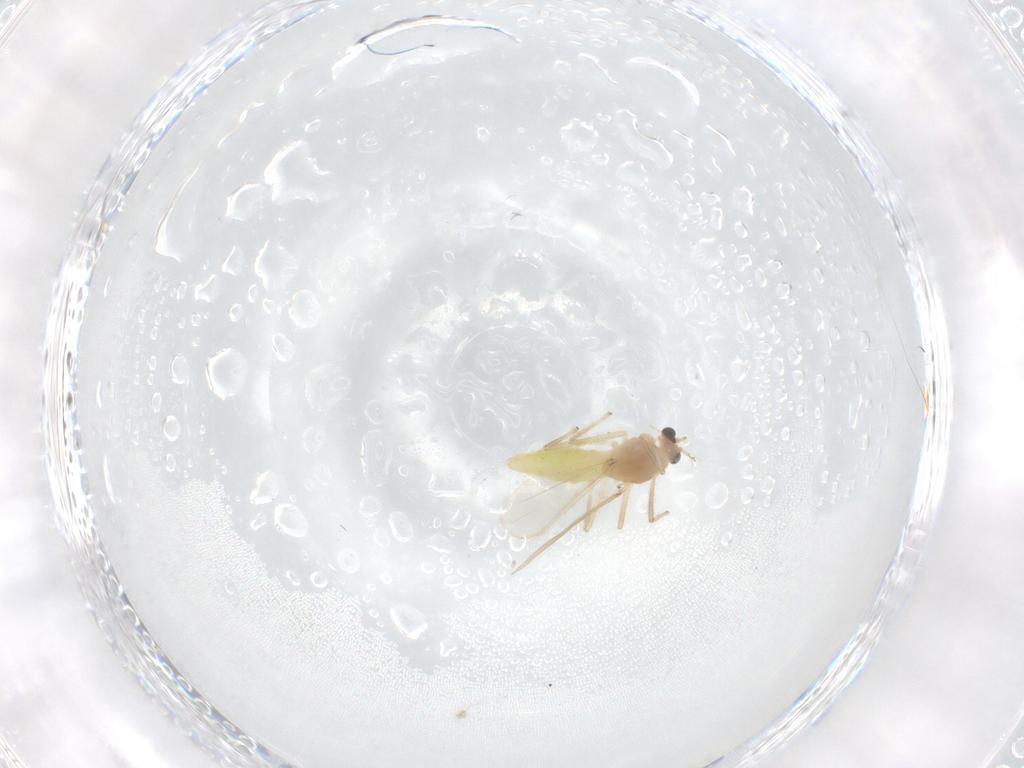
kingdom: Animalia
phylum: Arthropoda
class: Insecta
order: Diptera
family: Chironomidae
